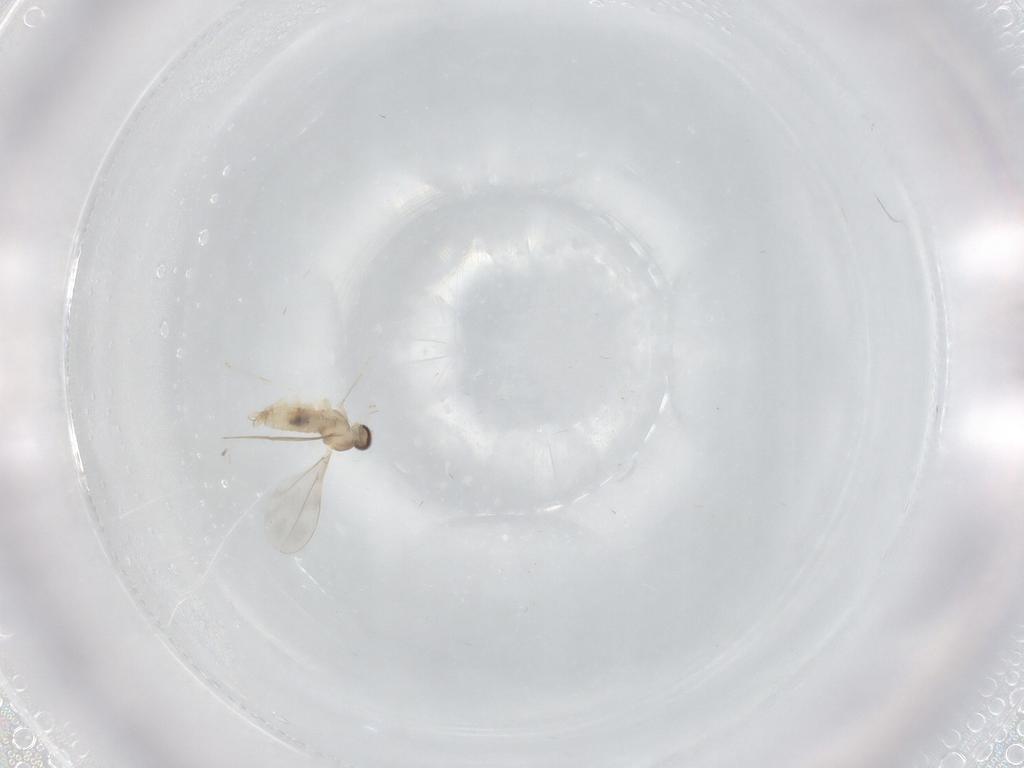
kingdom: Animalia
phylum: Arthropoda
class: Insecta
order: Diptera
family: Cecidomyiidae
